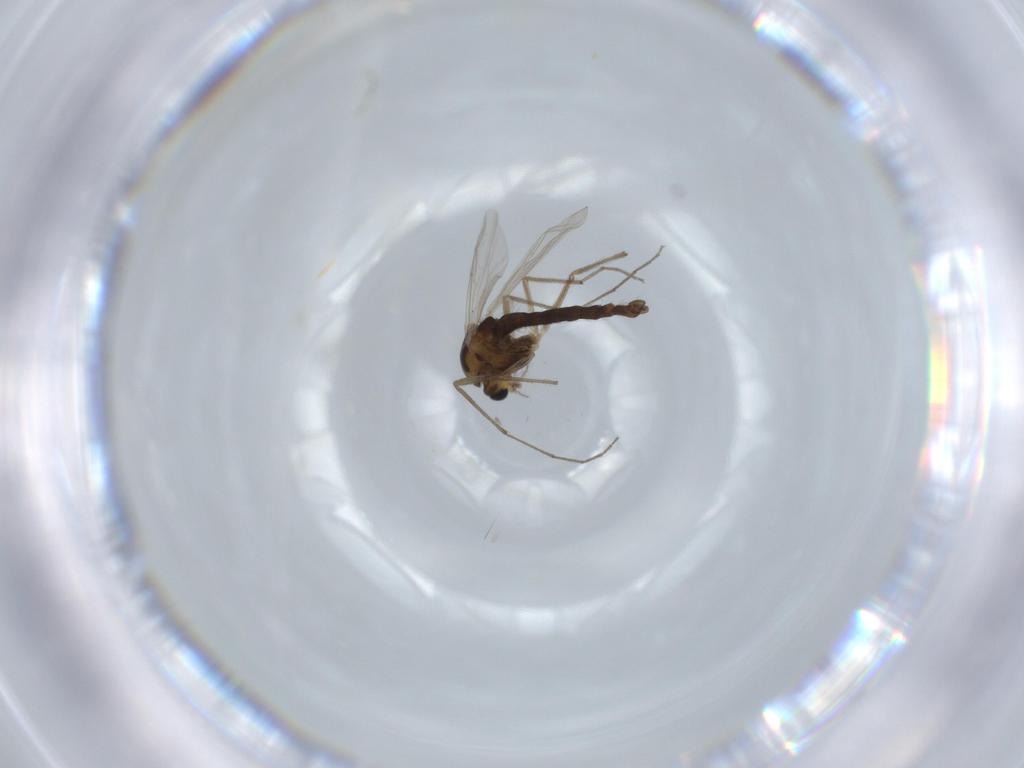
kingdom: Animalia
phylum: Arthropoda
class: Insecta
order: Diptera
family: Chironomidae
